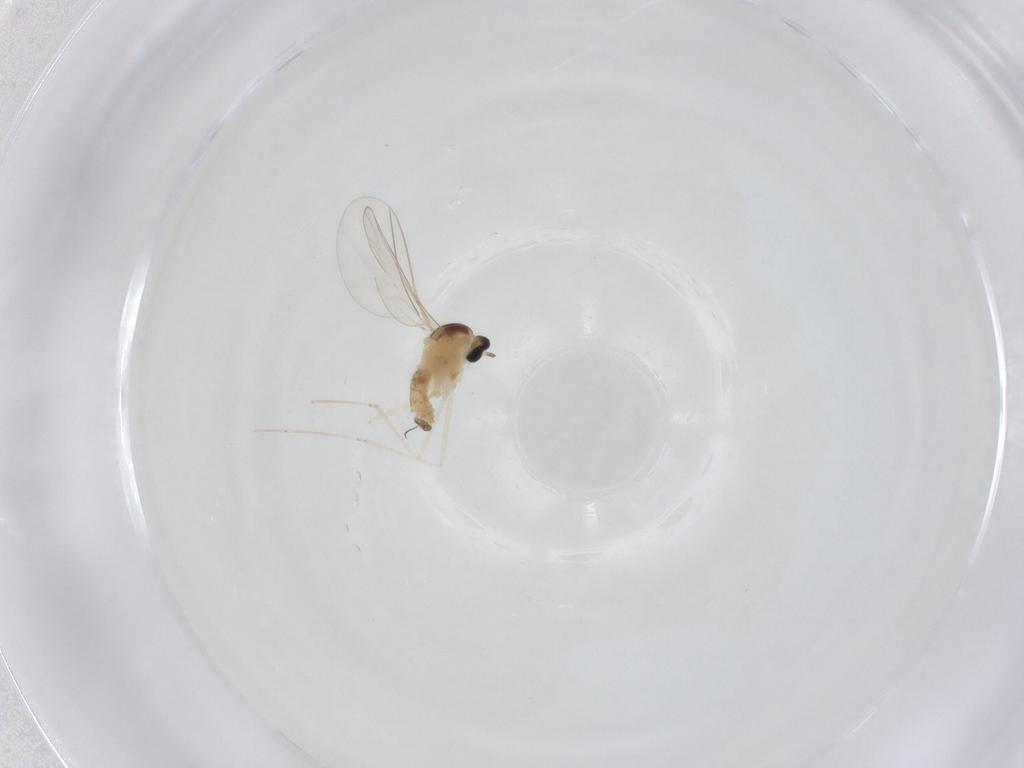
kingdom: Animalia
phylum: Arthropoda
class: Insecta
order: Diptera
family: Cecidomyiidae
